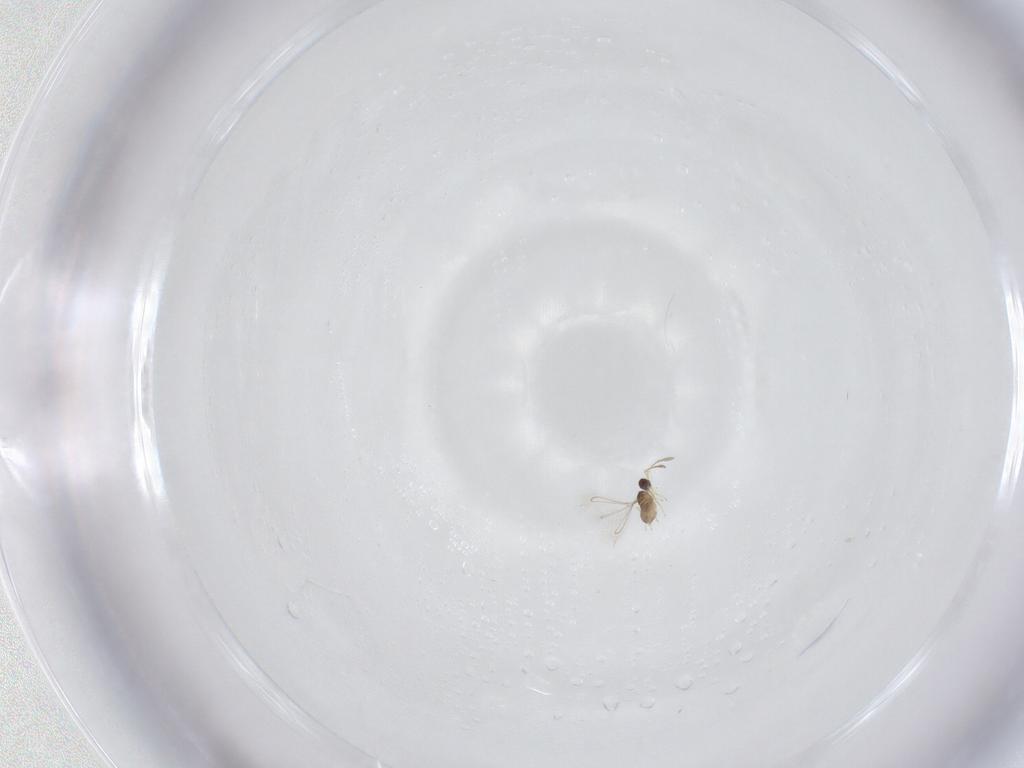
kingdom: Animalia
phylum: Arthropoda
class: Insecta
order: Hymenoptera
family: Mymaridae
